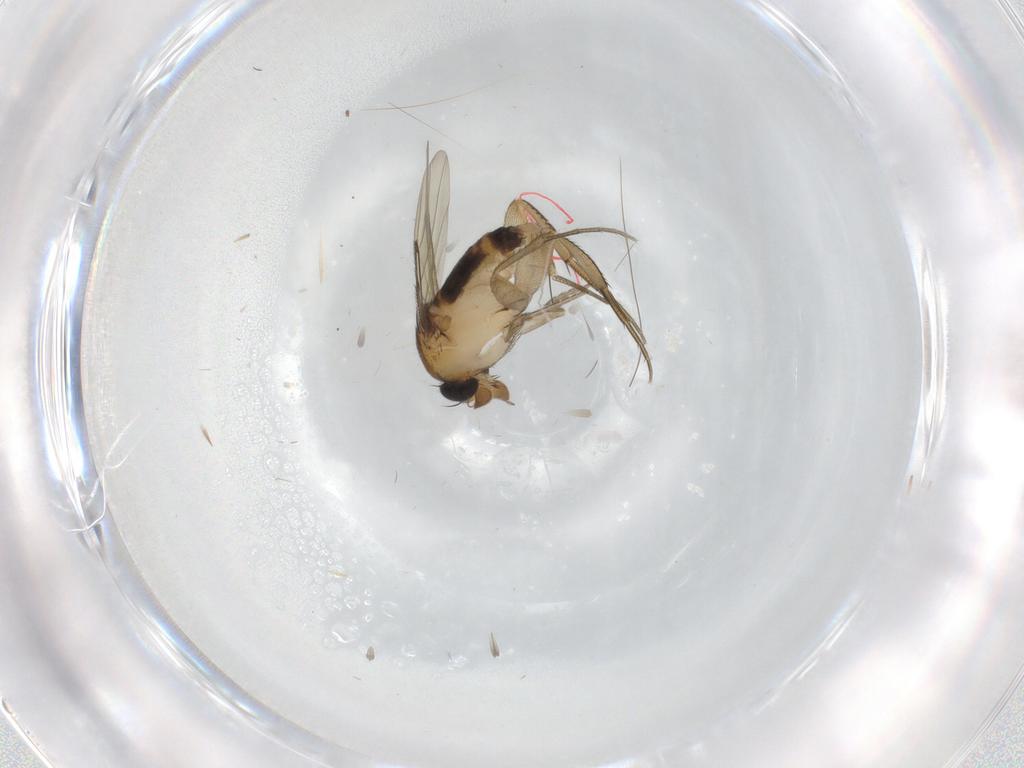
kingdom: Animalia
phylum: Arthropoda
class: Insecta
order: Diptera
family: Phoridae
